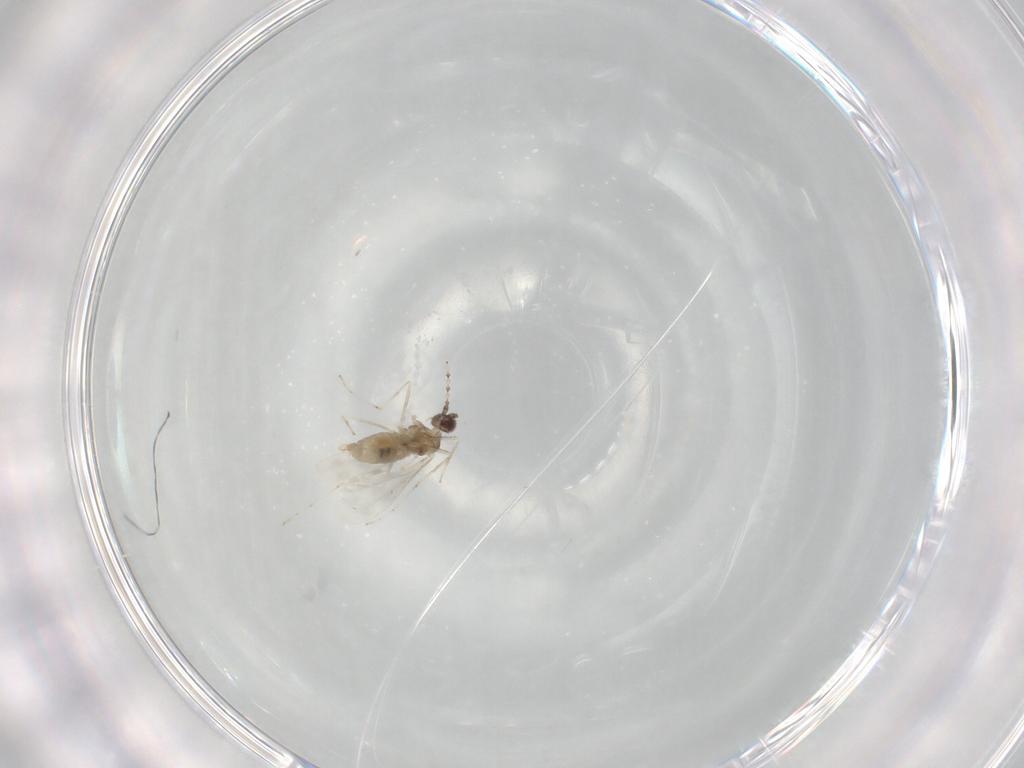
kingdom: Animalia
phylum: Arthropoda
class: Insecta
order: Diptera
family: Cecidomyiidae
